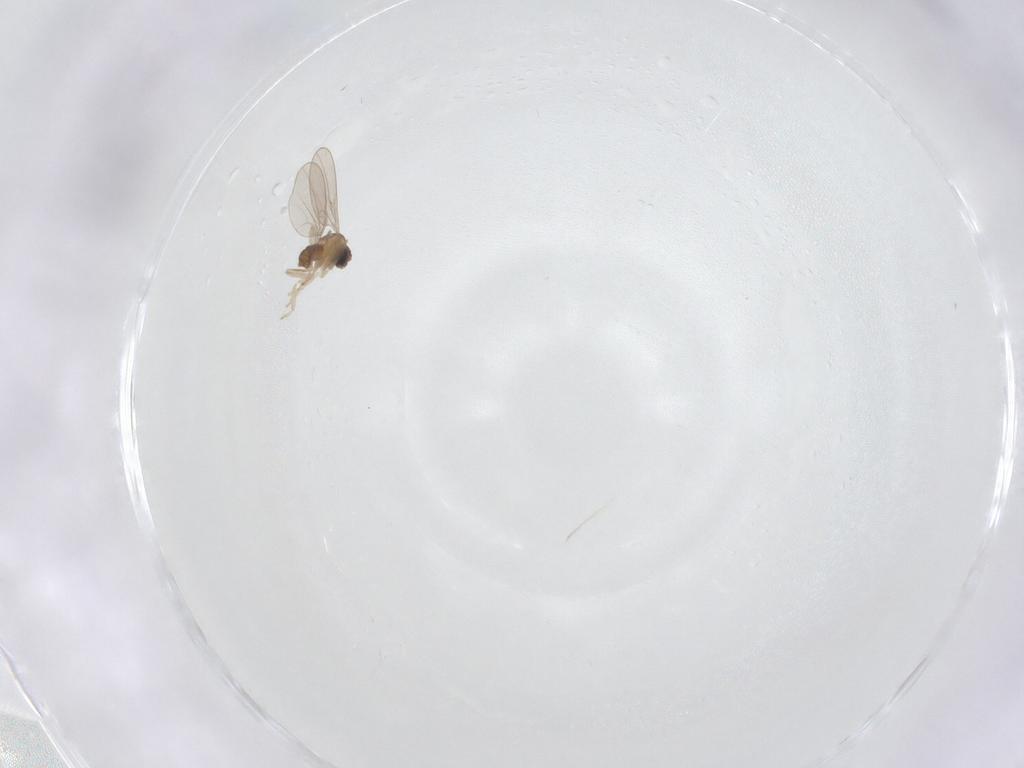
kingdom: Animalia
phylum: Arthropoda
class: Insecta
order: Diptera
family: Cecidomyiidae
